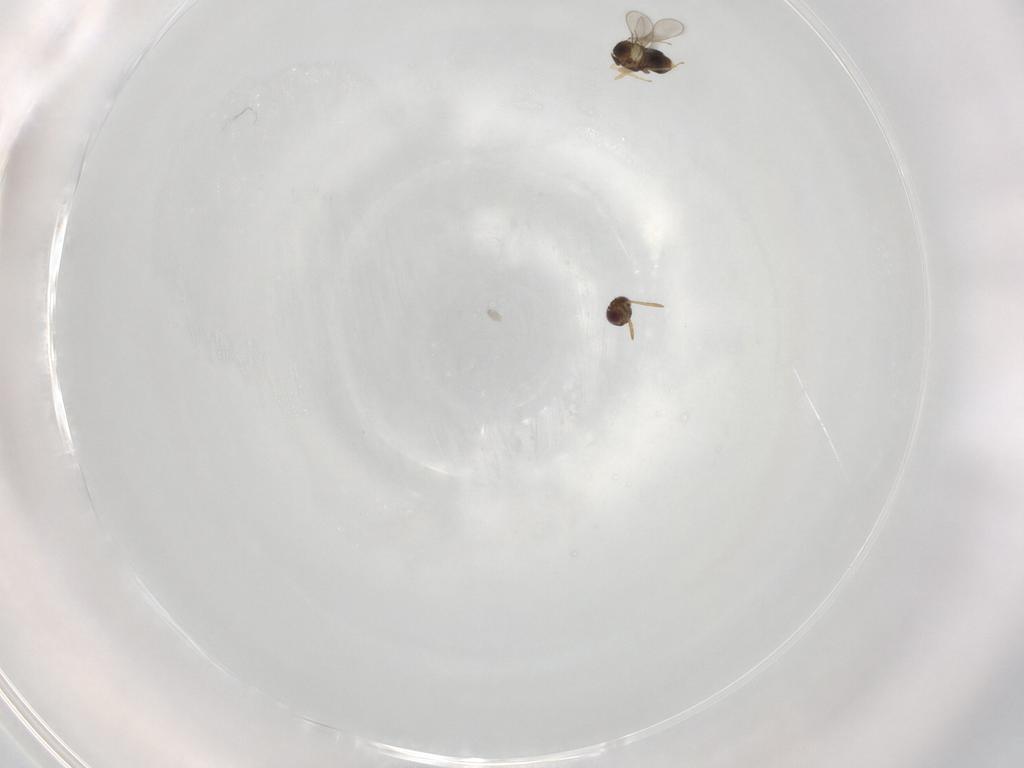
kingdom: Animalia
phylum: Arthropoda
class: Insecta
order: Hymenoptera
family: Aphelinidae
